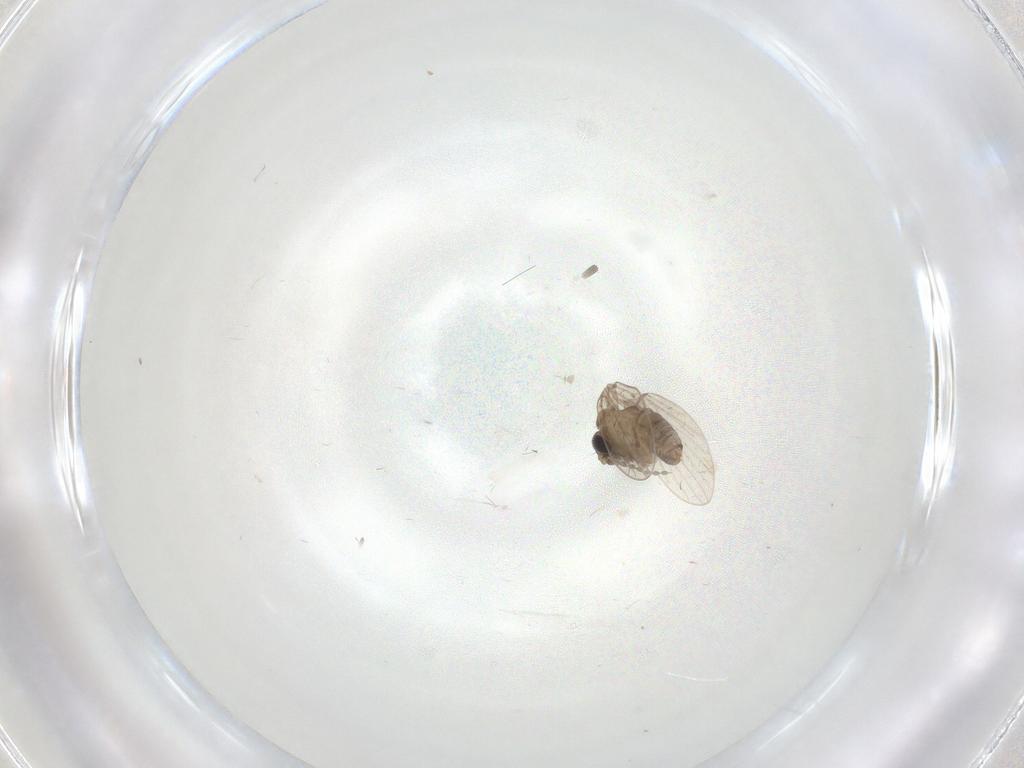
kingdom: Animalia
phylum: Arthropoda
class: Insecta
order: Diptera
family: Cecidomyiidae
